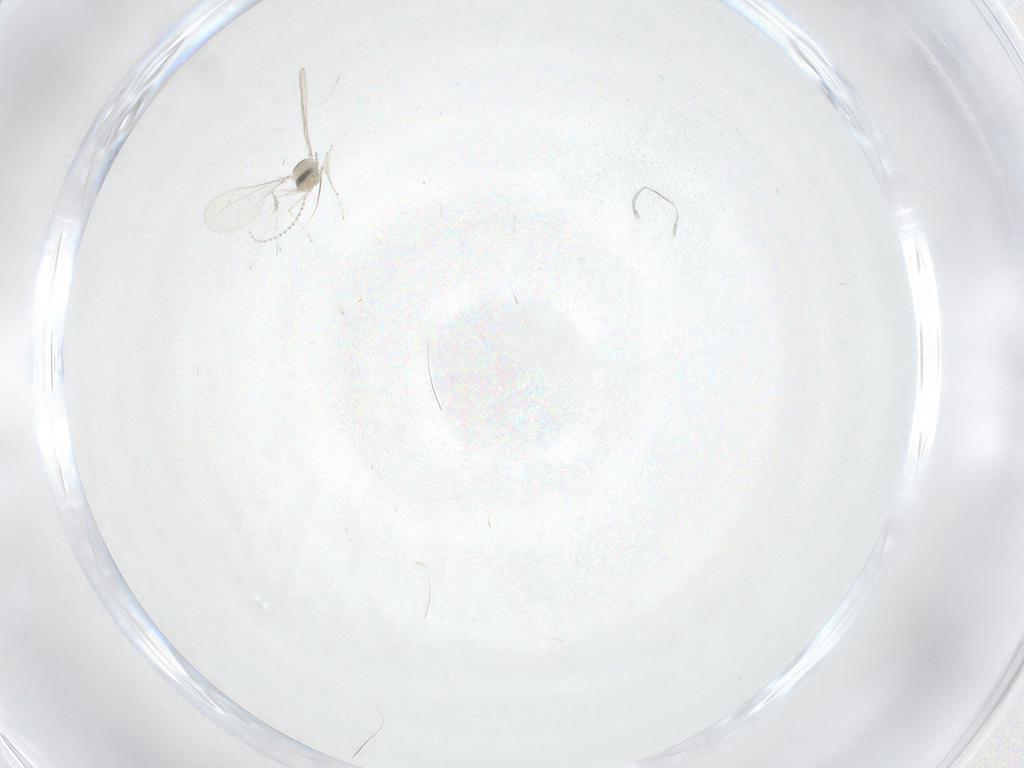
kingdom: Animalia
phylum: Arthropoda
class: Insecta
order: Diptera
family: Cecidomyiidae
